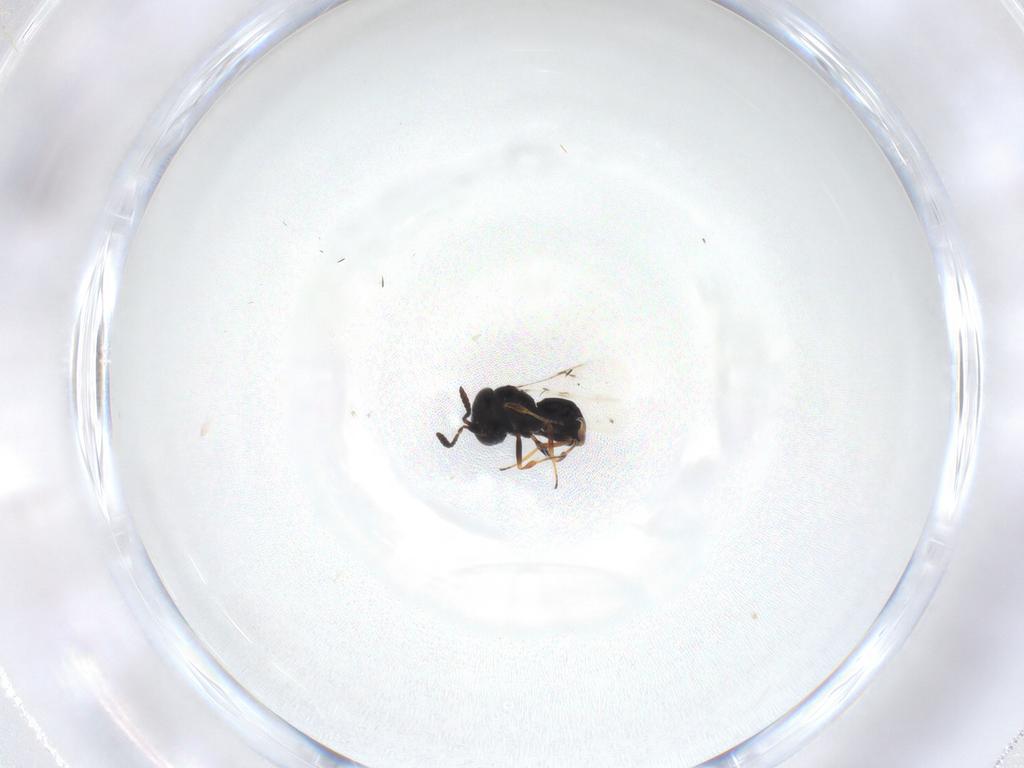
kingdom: Animalia
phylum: Arthropoda
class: Insecta
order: Hymenoptera
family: Scelionidae
